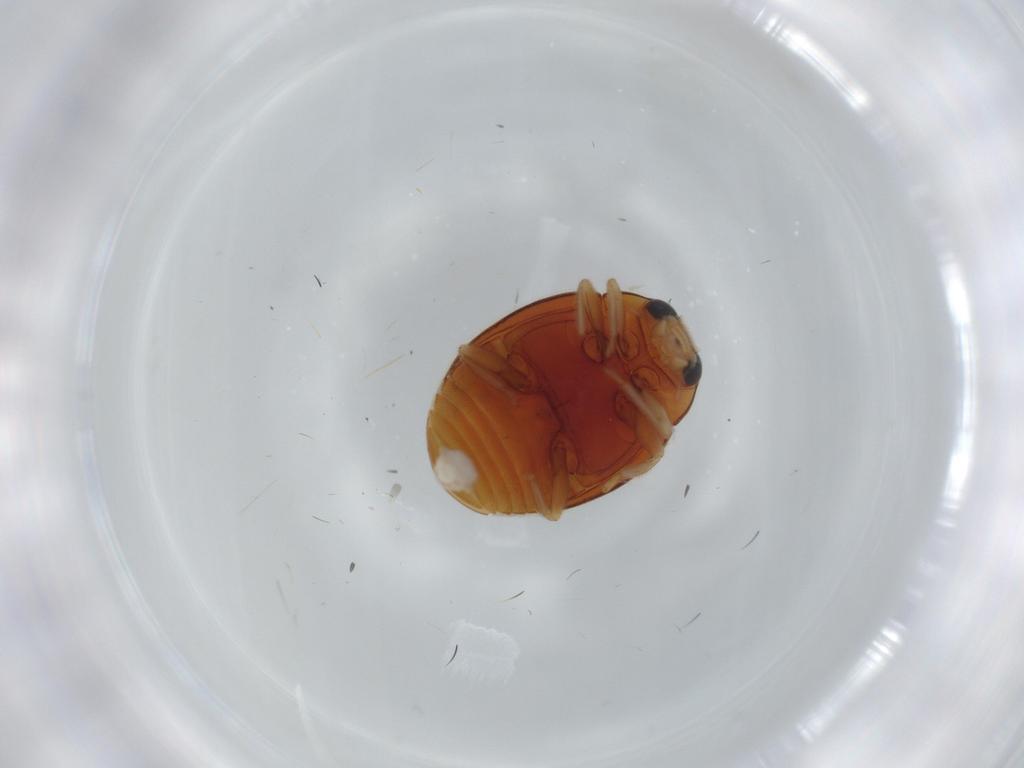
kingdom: Animalia
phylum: Arthropoda
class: Insecta
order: Coleoptera
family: Coccinellidae
